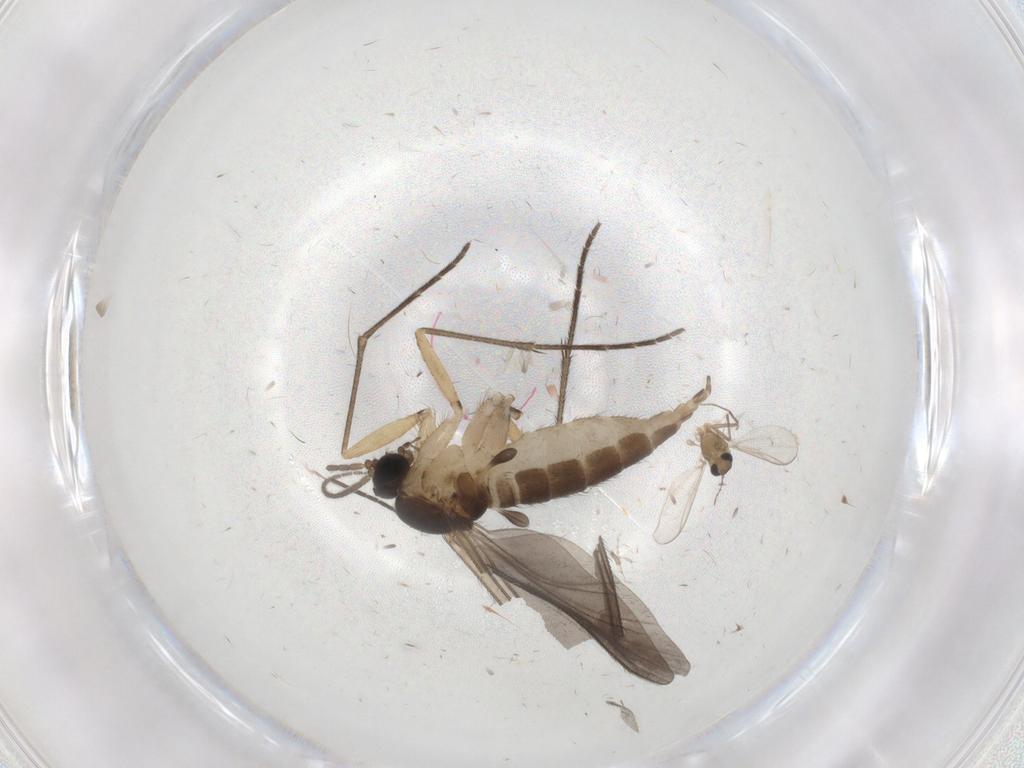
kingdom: Animalia
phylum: Arthropoda
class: Insecta
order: Diptera
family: Sciaridae
